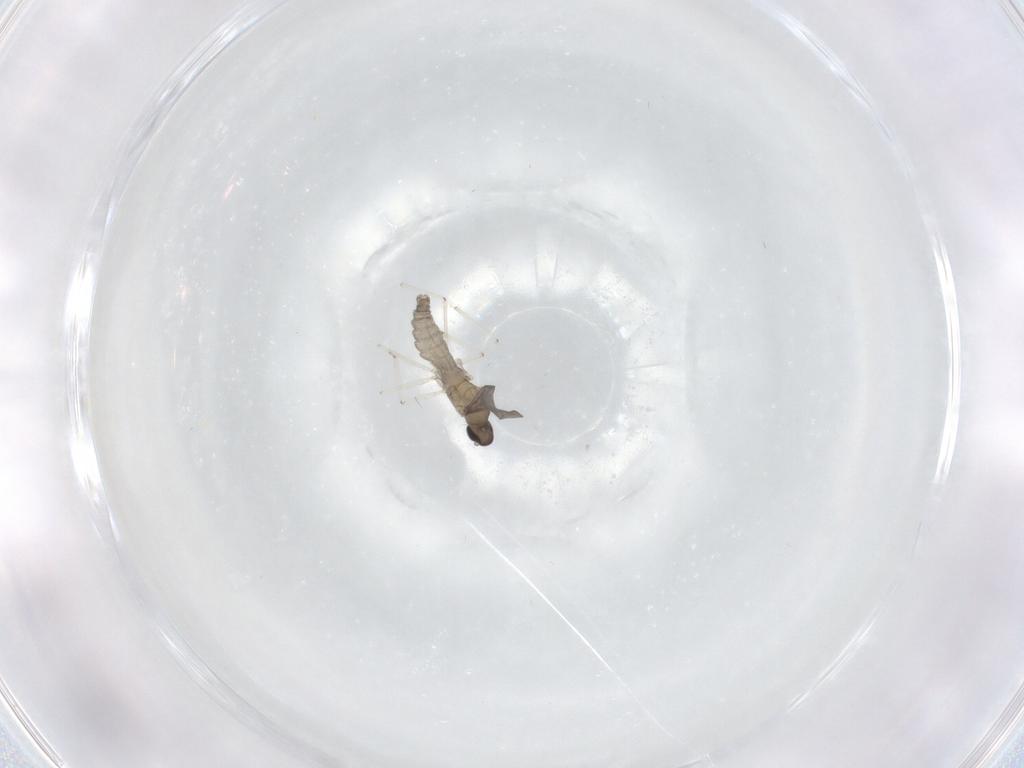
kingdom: Animalia
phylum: Arthropoda
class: Insecta
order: Diptera
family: Cecidomyiidae
